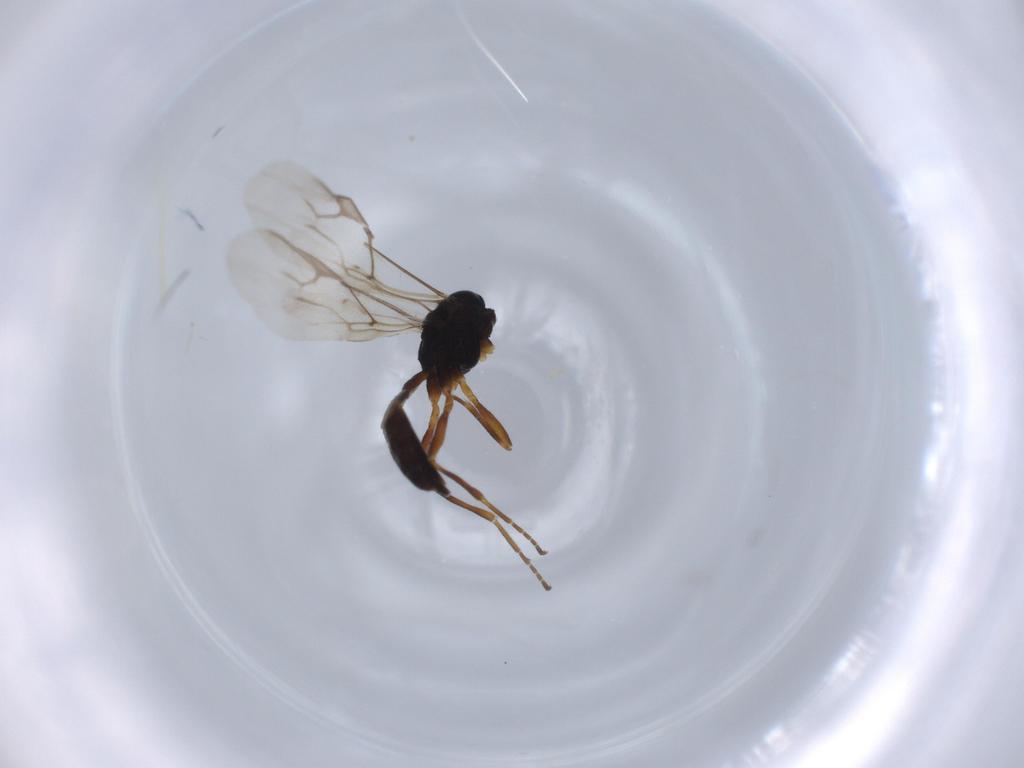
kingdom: Animalia
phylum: Arthropoda
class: Insecta
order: Hymenoptera
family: Braconidae
